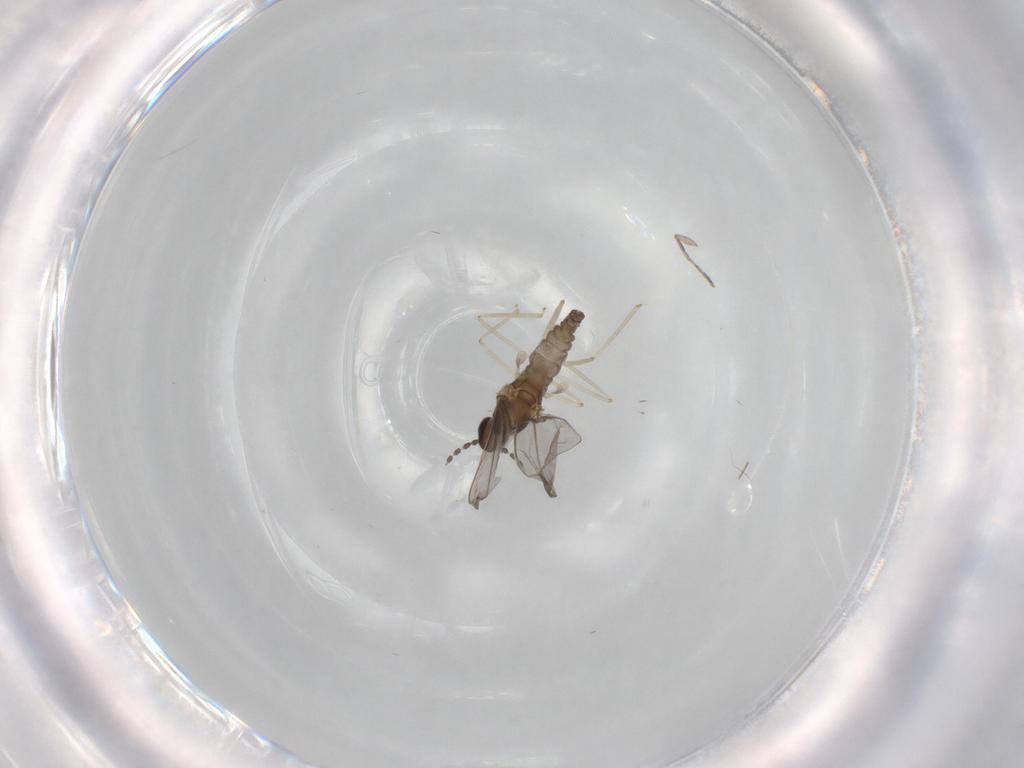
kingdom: Animalia
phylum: Arthropoda
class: Insecta
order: Diptera
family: Cecidomyiidae
